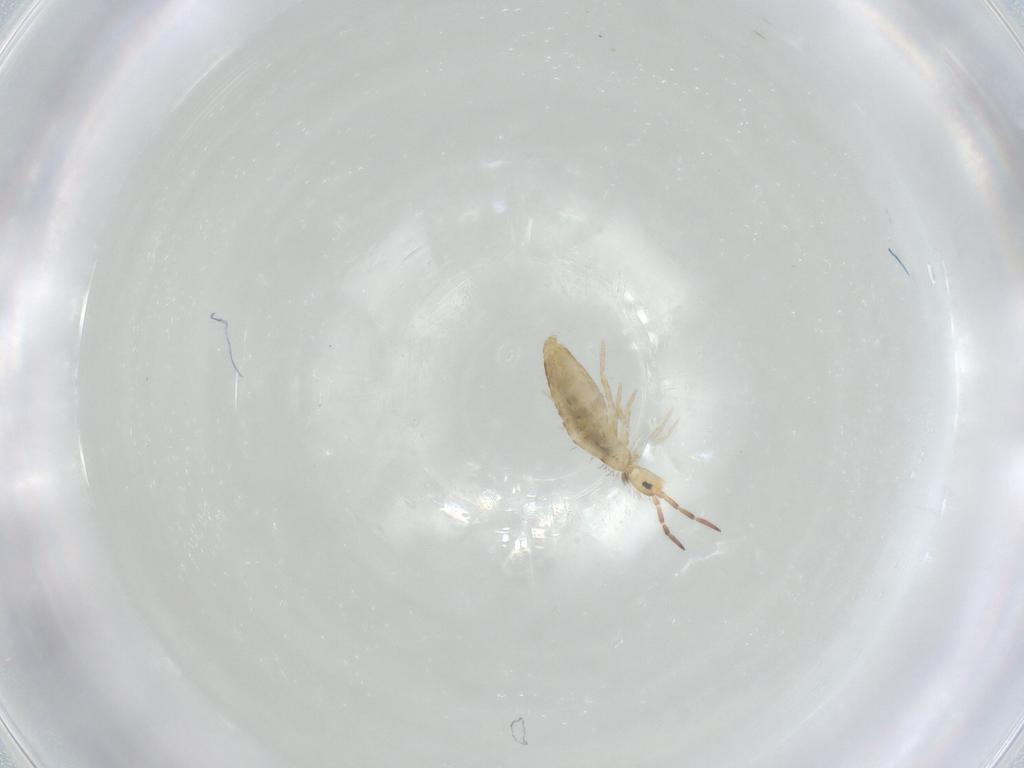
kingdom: Animalia
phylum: Arthropoda
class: Collembola
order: Entomobryomorpha
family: Entomobryidae
